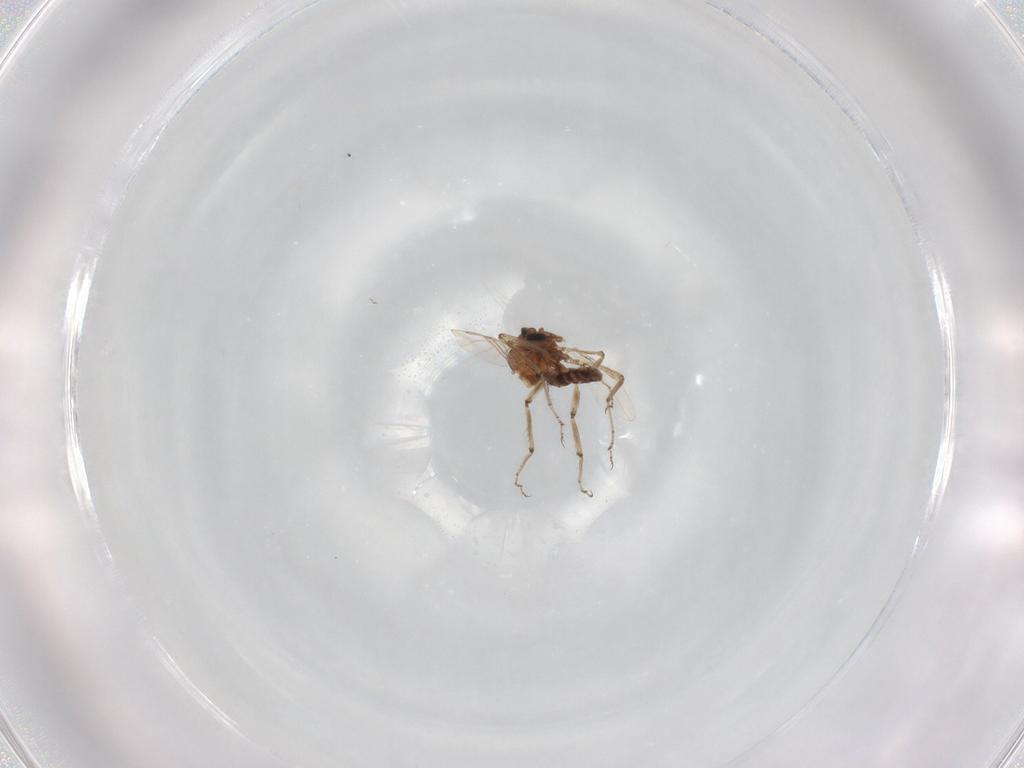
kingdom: Animalia
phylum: Arthropoda
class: Insecta
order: Diptera
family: Ceratopogonidae
